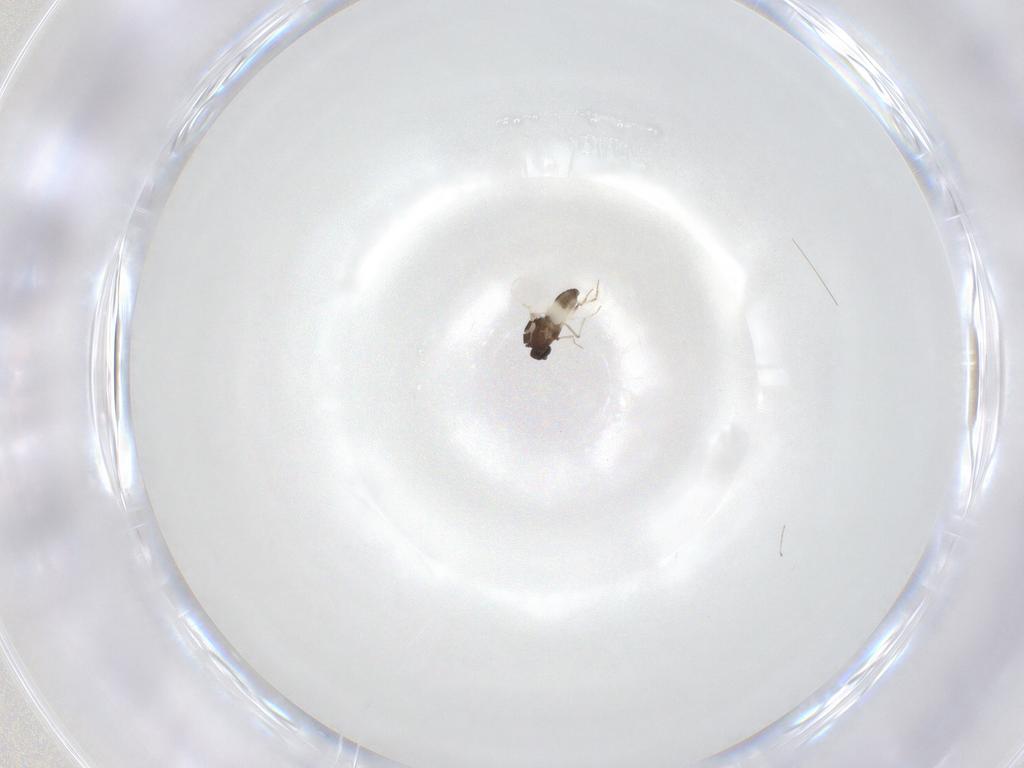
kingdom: Animalia
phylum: Arthropoda
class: Insecta
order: Diptera
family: Ceratopogonidae
